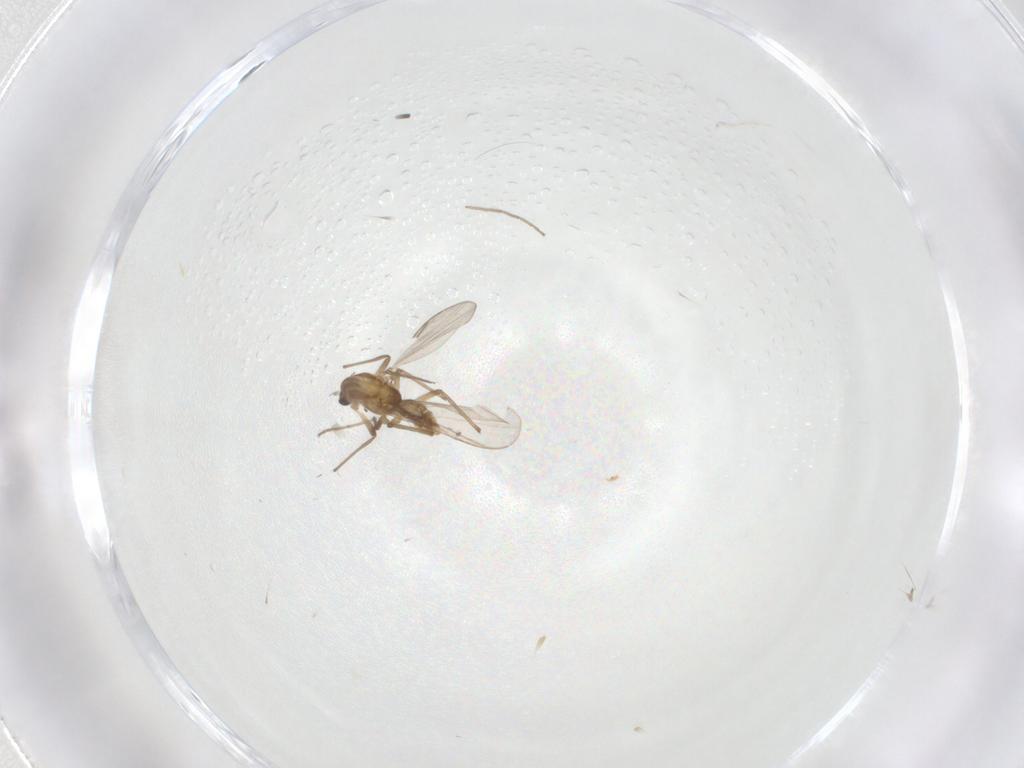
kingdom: Animalia
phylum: Arthropoda
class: Insecta
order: Diptera
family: Chironomidae
